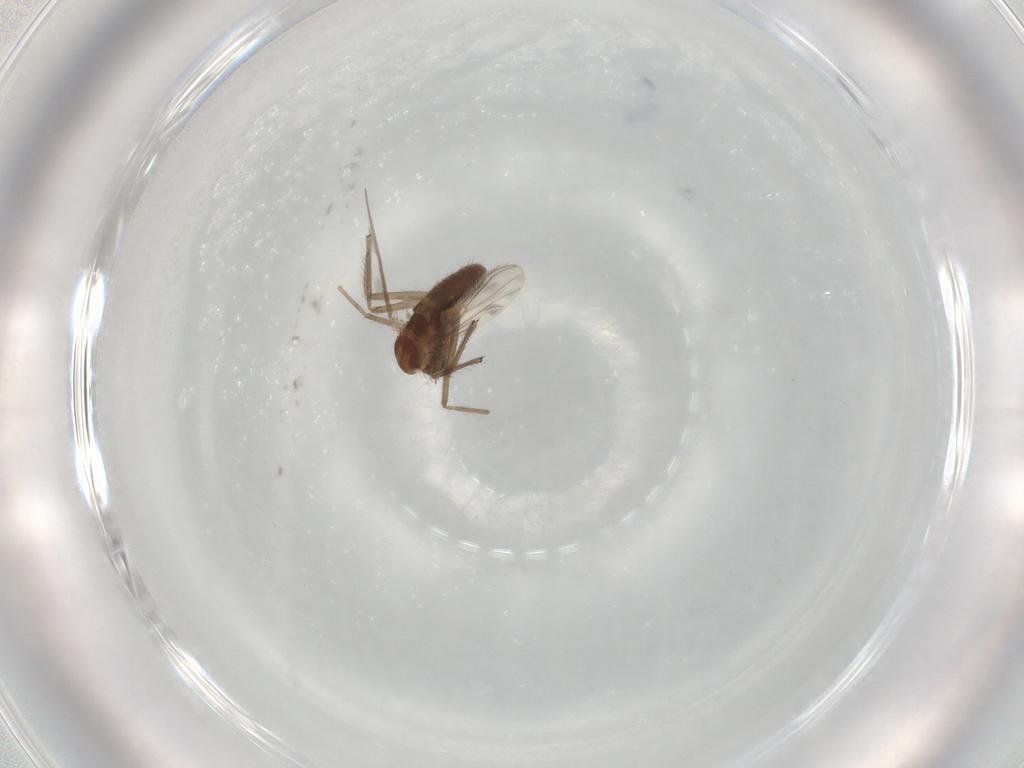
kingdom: Animalia
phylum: Arthropoda
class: Insecta
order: Diptera
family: Chironomidae
